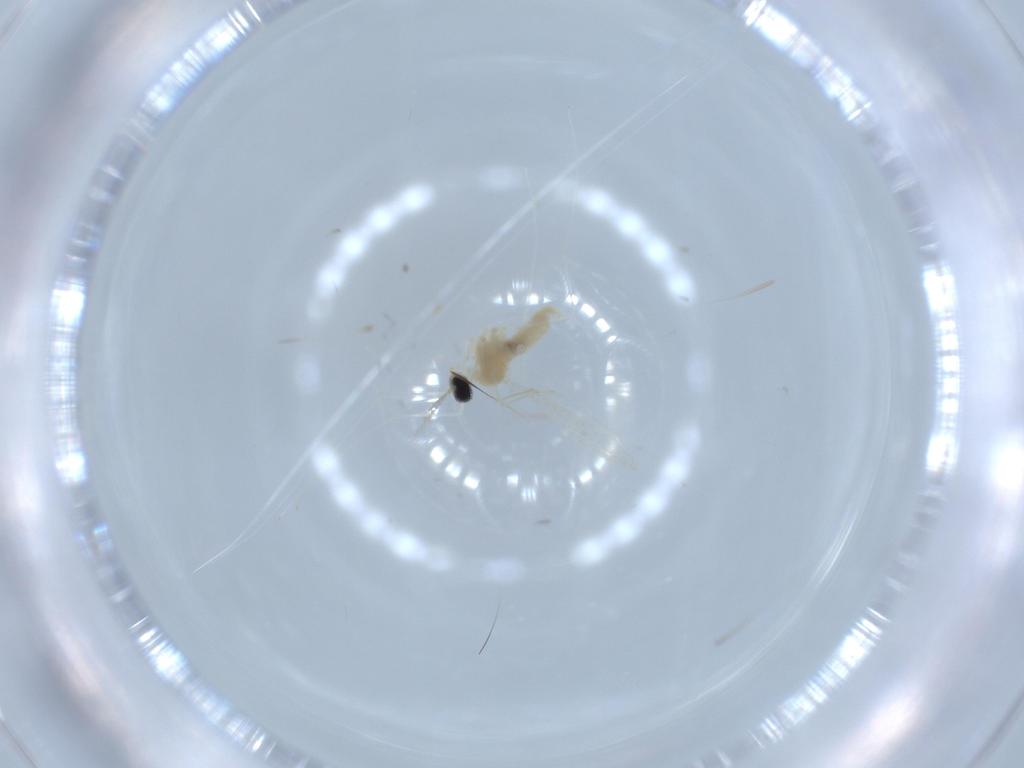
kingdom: Animalia
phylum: Arthropoda
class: Insecta
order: Diptera
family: Cecidomyiidae
